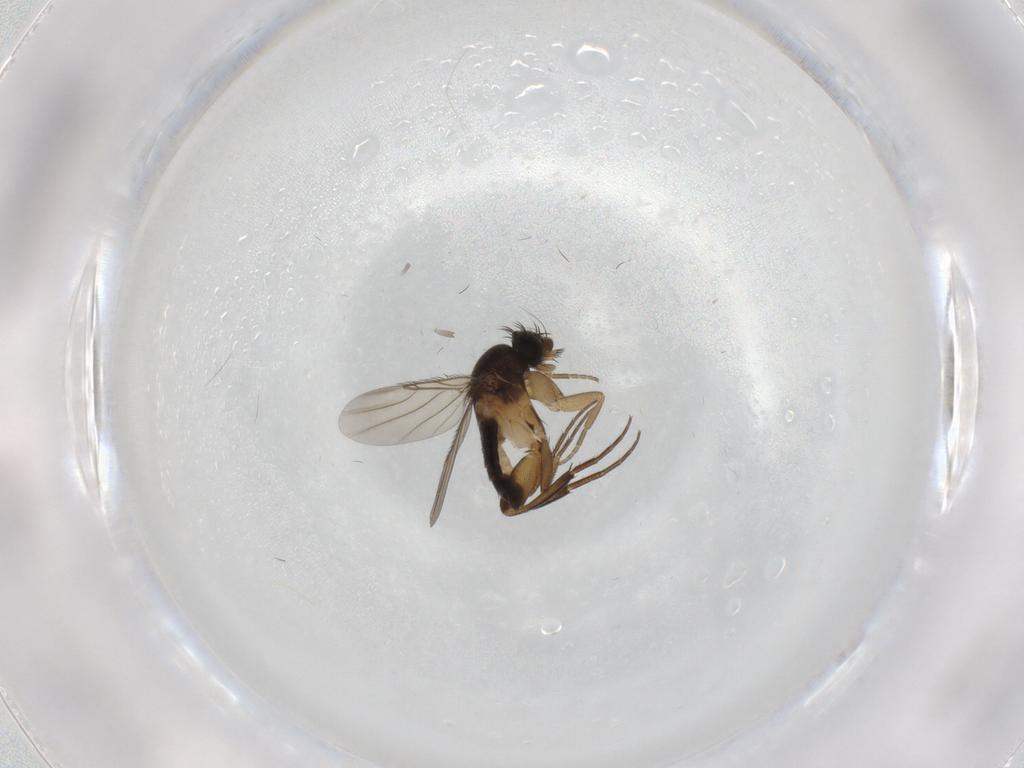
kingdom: Animalia
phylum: Arthropoda
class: Insecta
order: Diptera
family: Phoridae
